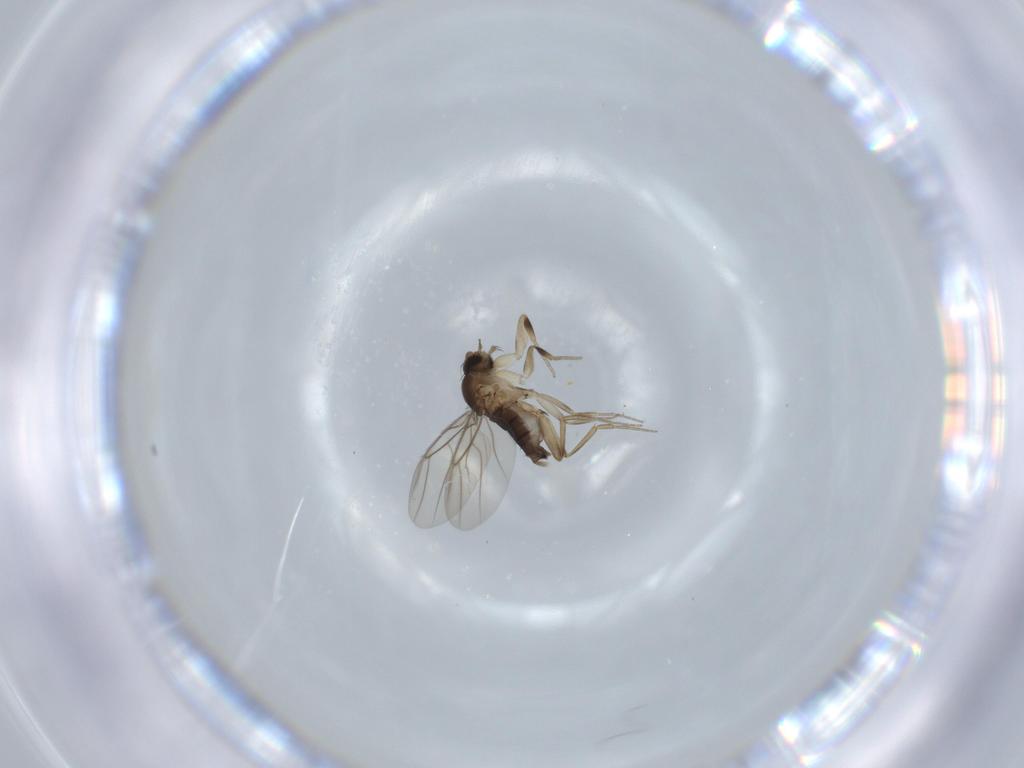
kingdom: Animalia
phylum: Arthropoda
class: Insecta
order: Diptera
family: Phoridae
